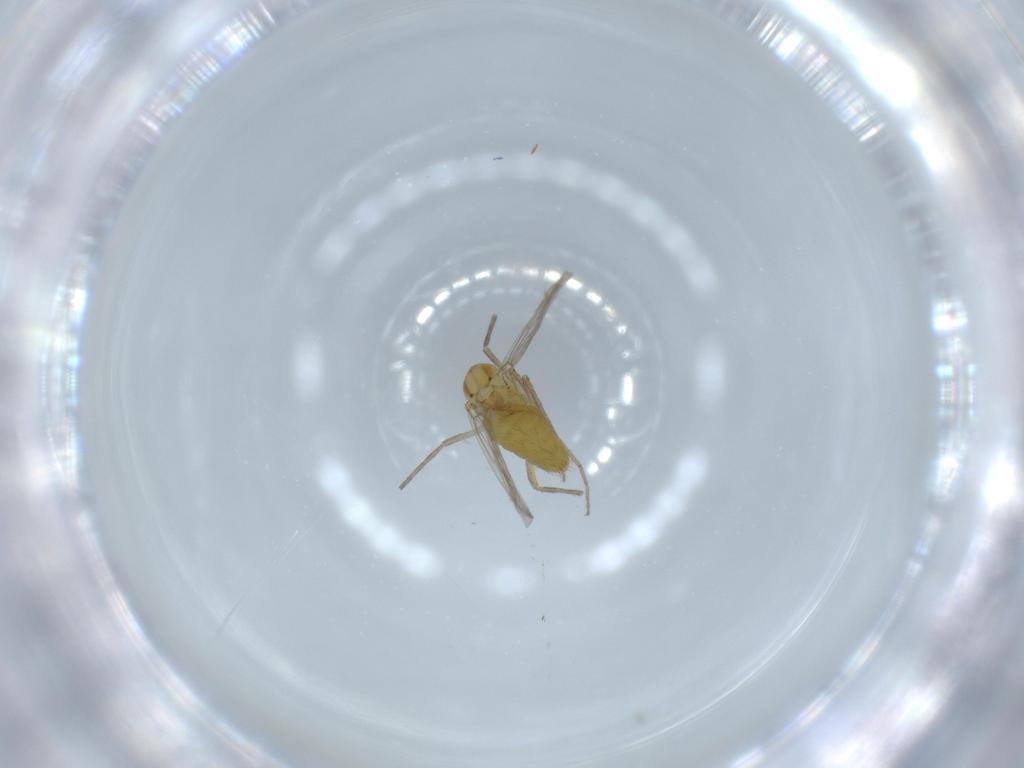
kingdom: Animalia
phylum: Arthropoda
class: Insecta
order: Diptera
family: Chironomidae
